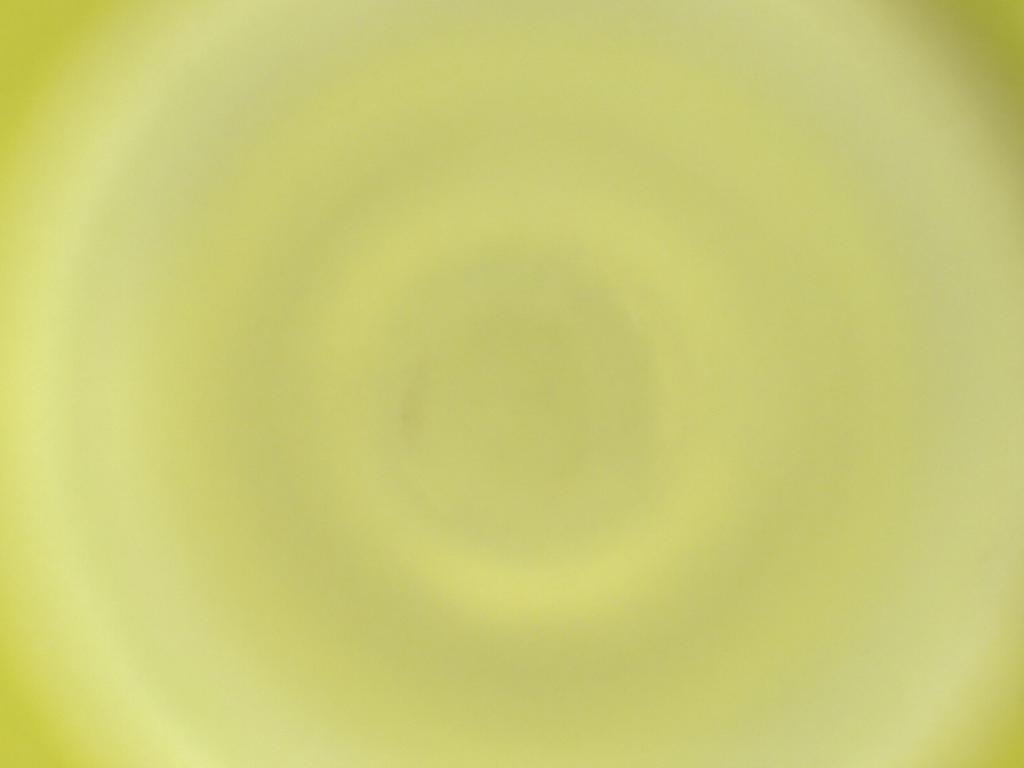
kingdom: Animalia
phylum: Arthropoda
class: Insecta
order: Diptera
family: Cecidomyiidae
